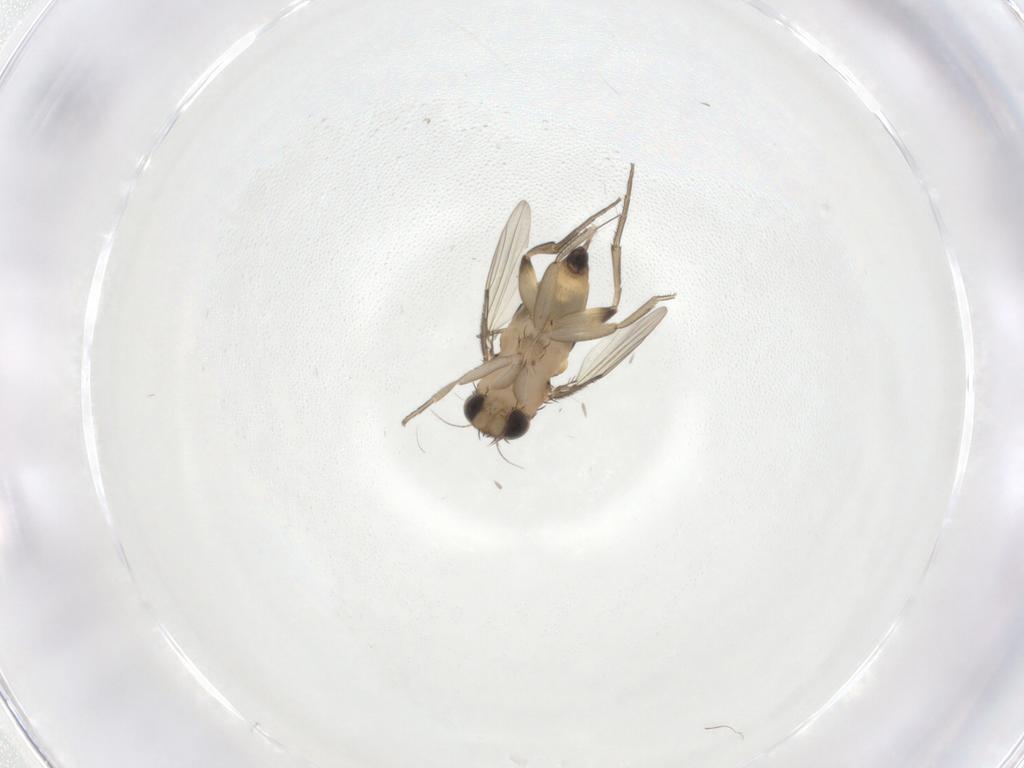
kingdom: Animalia
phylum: Arthropoda
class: Insecta
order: Diptera
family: Phoridae
